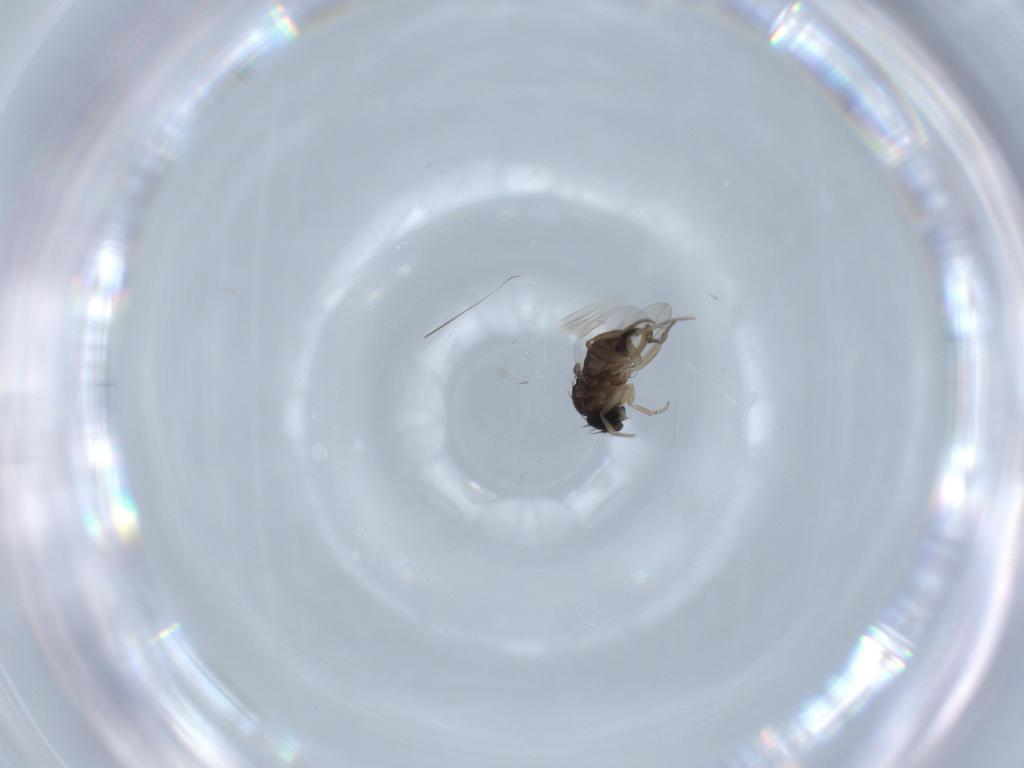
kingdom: Animalia
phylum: Arthropoda
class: Insecta
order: Diptera
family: Phoridae
